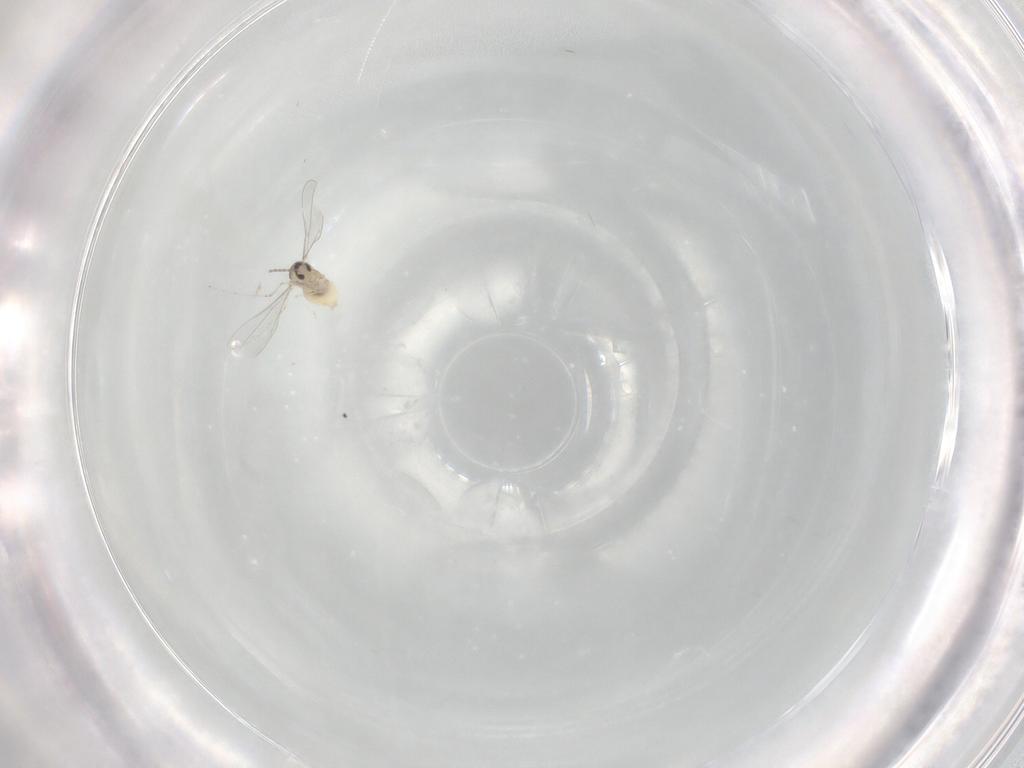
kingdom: Animalia
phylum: Arthropoda
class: Insecta
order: Diptera
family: Cecidomyiidae
